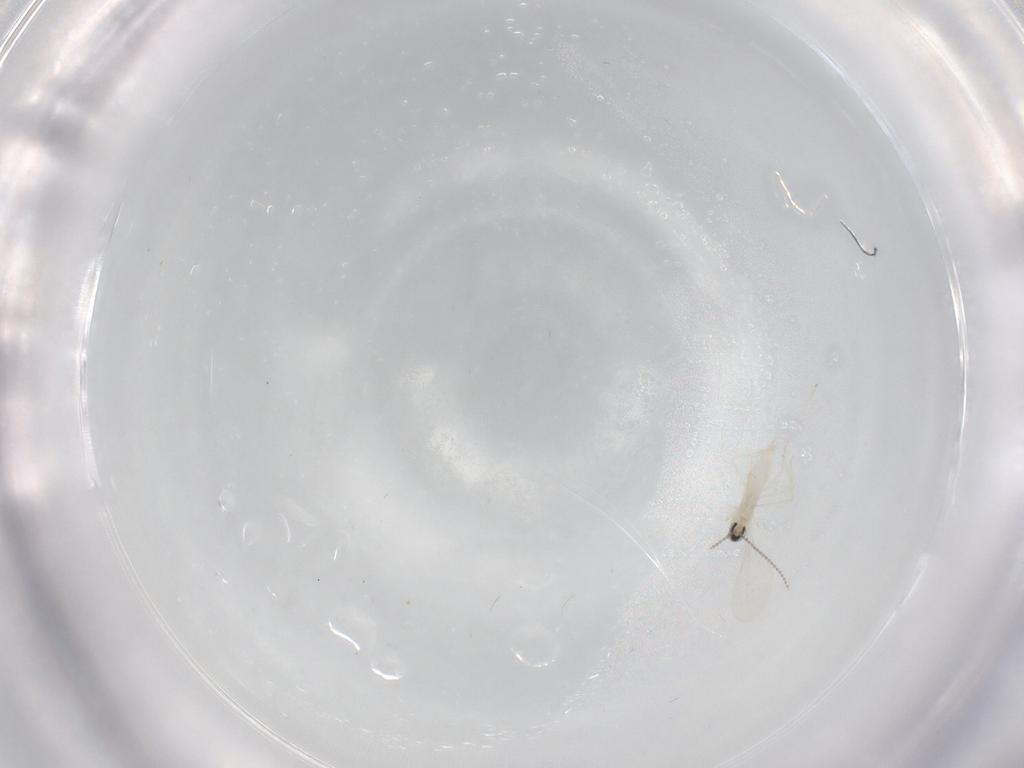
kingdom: Animalia
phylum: Arthropoda
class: Insecta
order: Diptera
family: Cecidomyiidae
